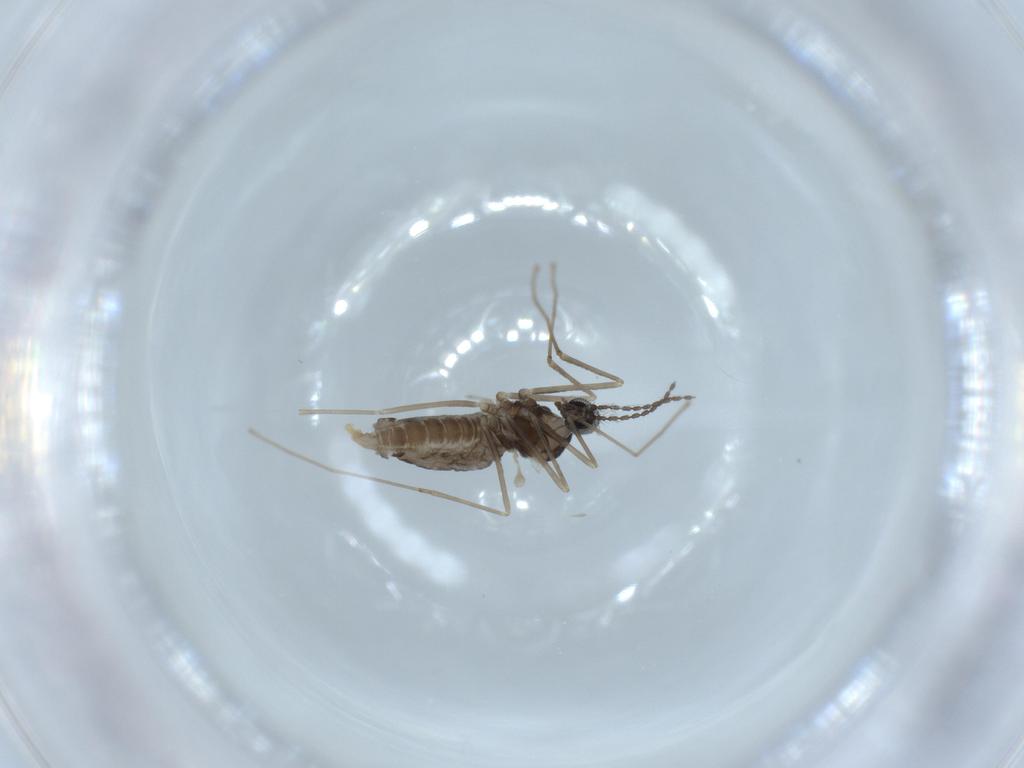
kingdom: Animalia
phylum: Arthropoda
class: Insecta
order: Diptera
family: Cecidomyiidae
